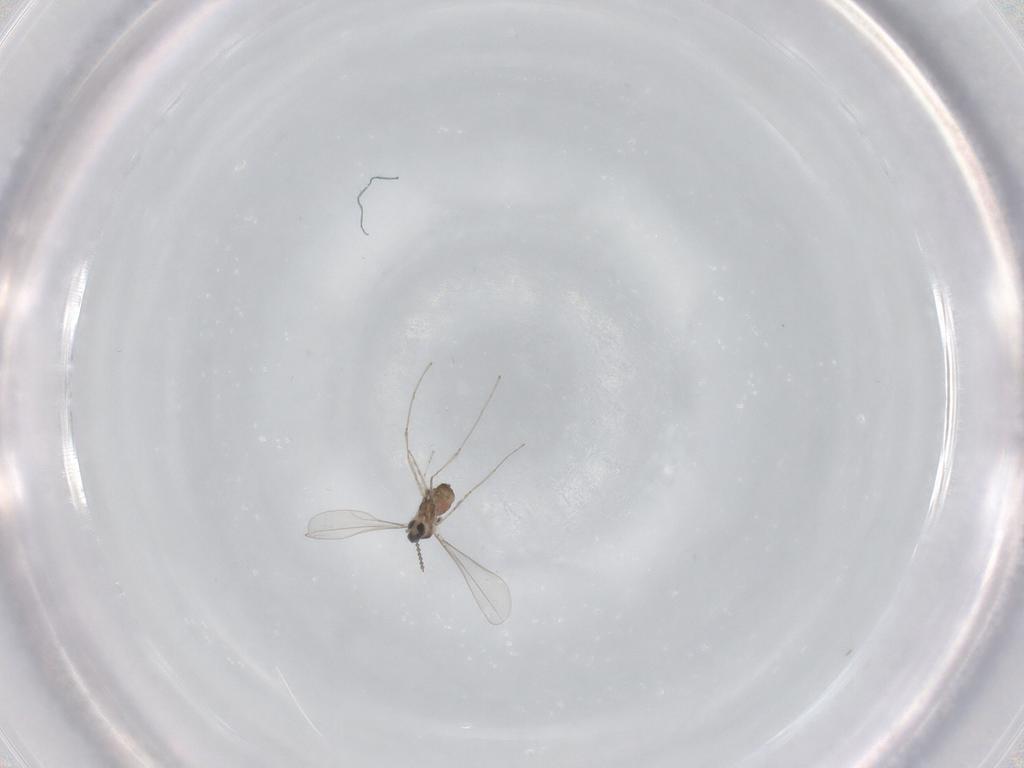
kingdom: Animalia
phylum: Arthropoda
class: Insecta
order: Diptera
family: Cecidomyiidae
